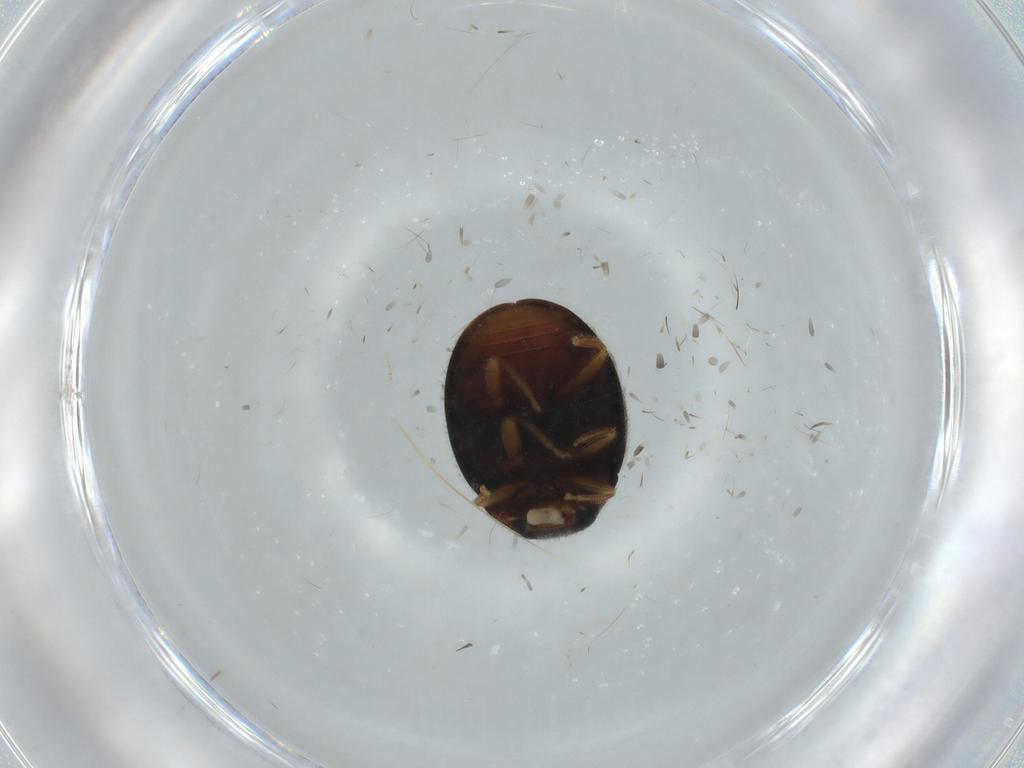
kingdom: Animalia
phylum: Arthropoda
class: Insecta
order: Coleoptera
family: Coccinellidae
